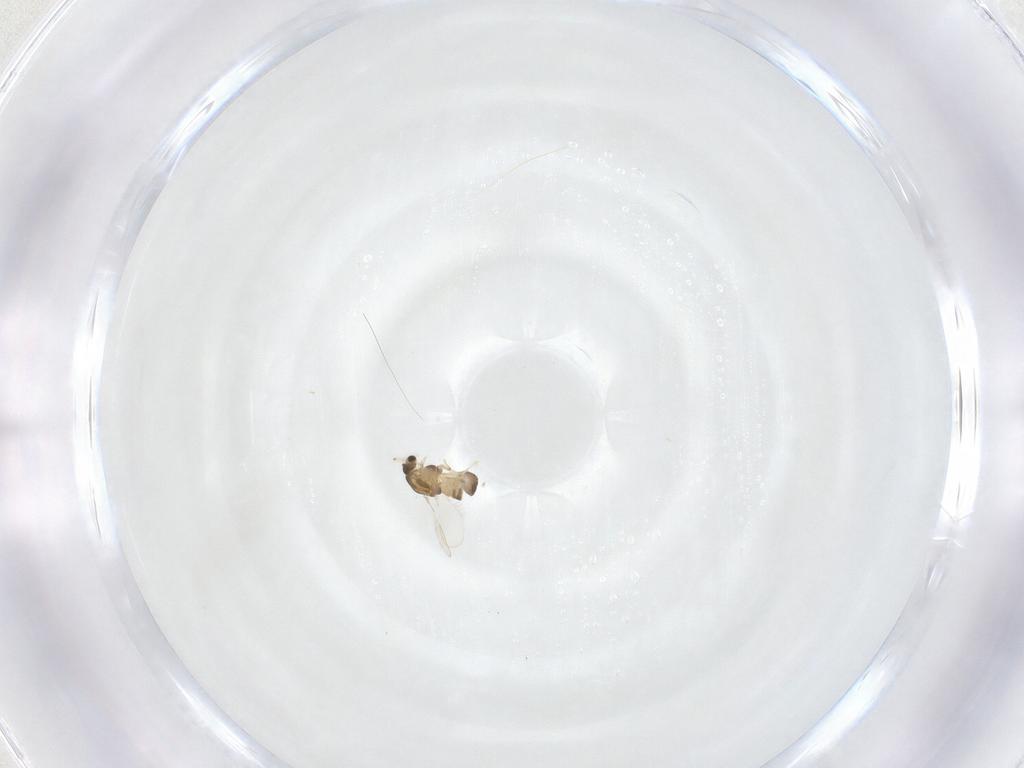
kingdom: Animalia
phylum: Arthropoda
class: Insecta
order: Diptera
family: Chironomidae
